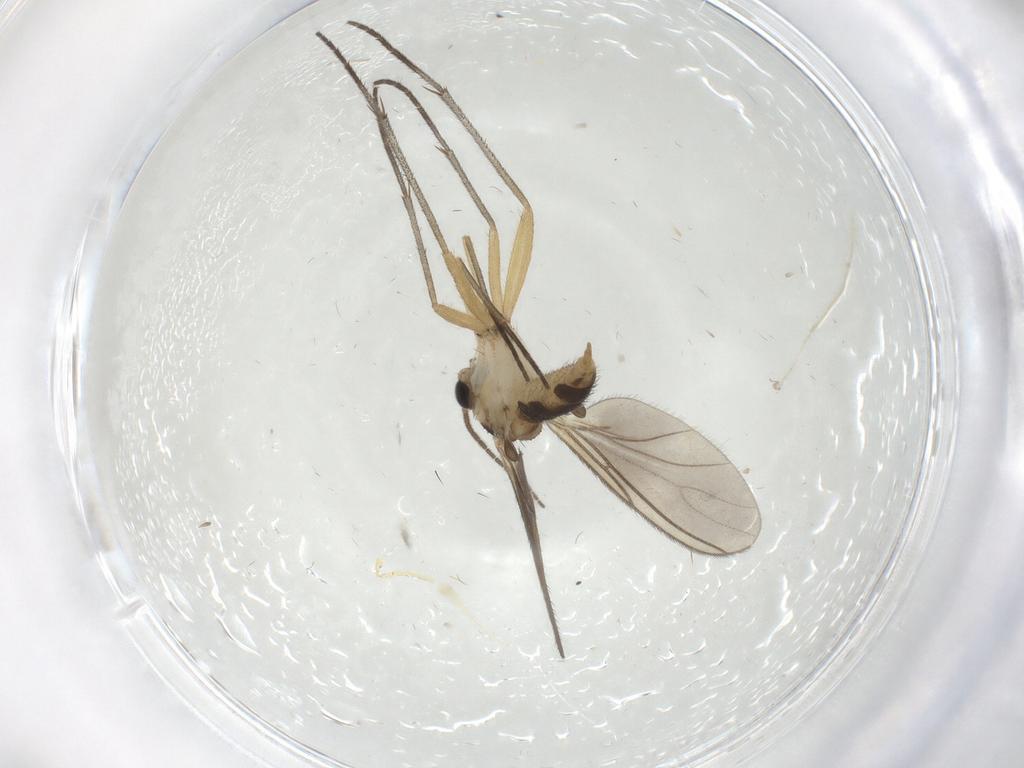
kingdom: Animalia
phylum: Arthropoda
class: Insecta
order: Diptera
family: Sciaridae
